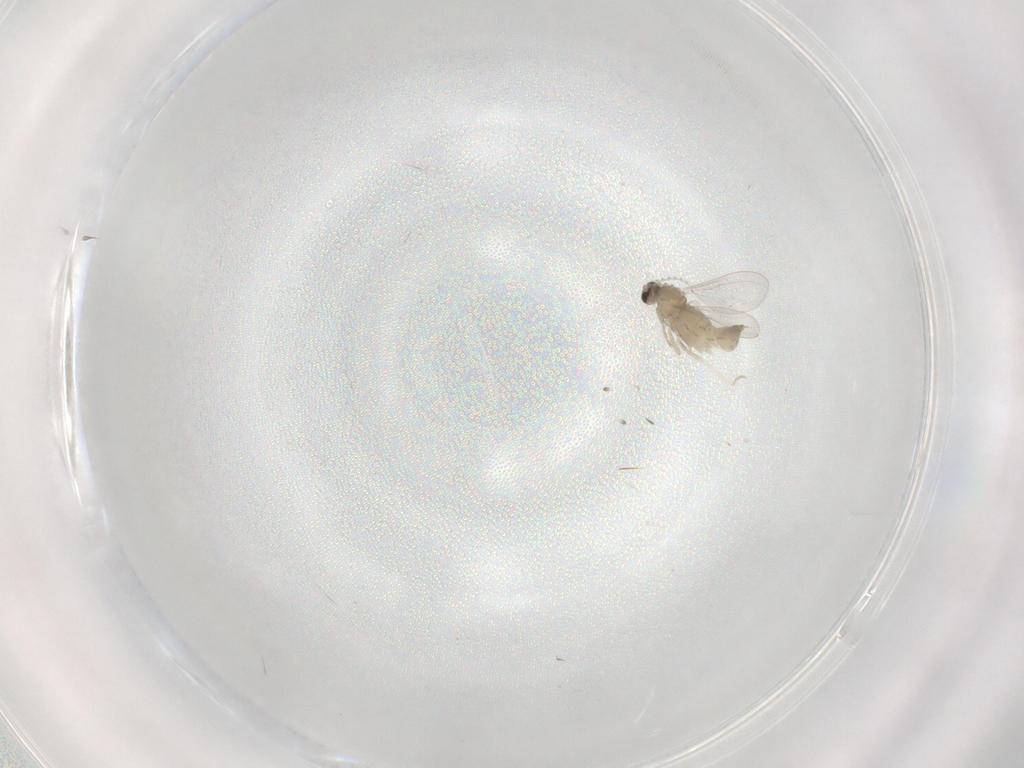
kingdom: Animalia
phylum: Arthropoda
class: Insecta
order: Diptera
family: Cecidomyiidae
